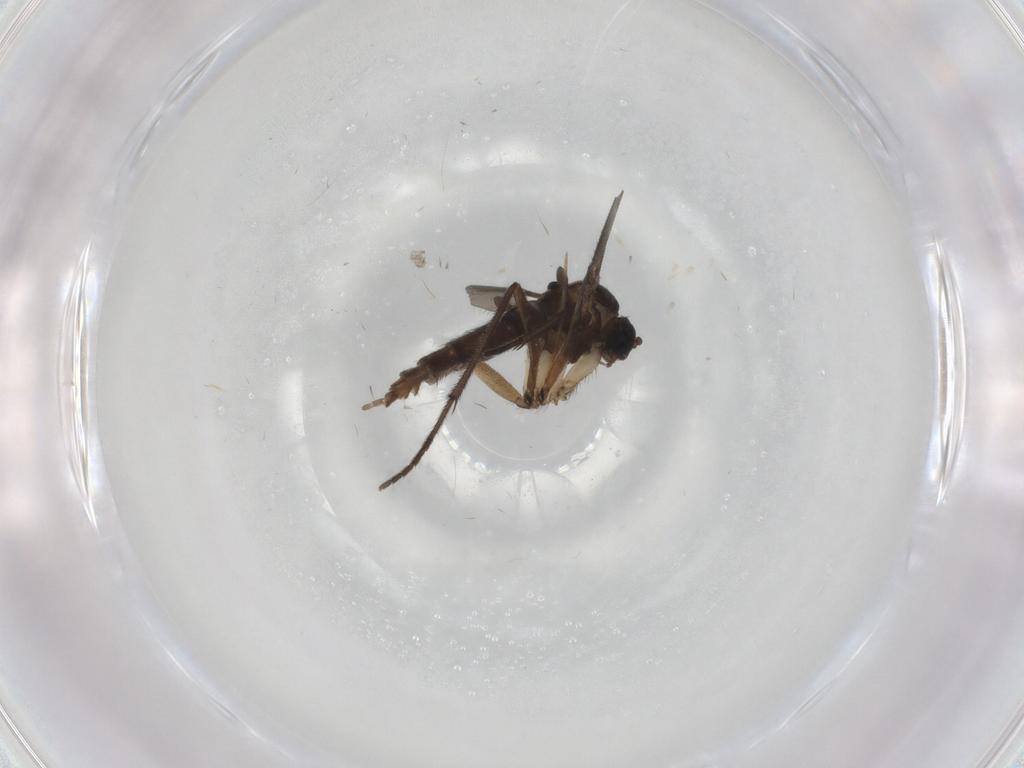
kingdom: Animalia
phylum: Arthropoda
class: Insecta
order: Diptera
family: Sciaridae
